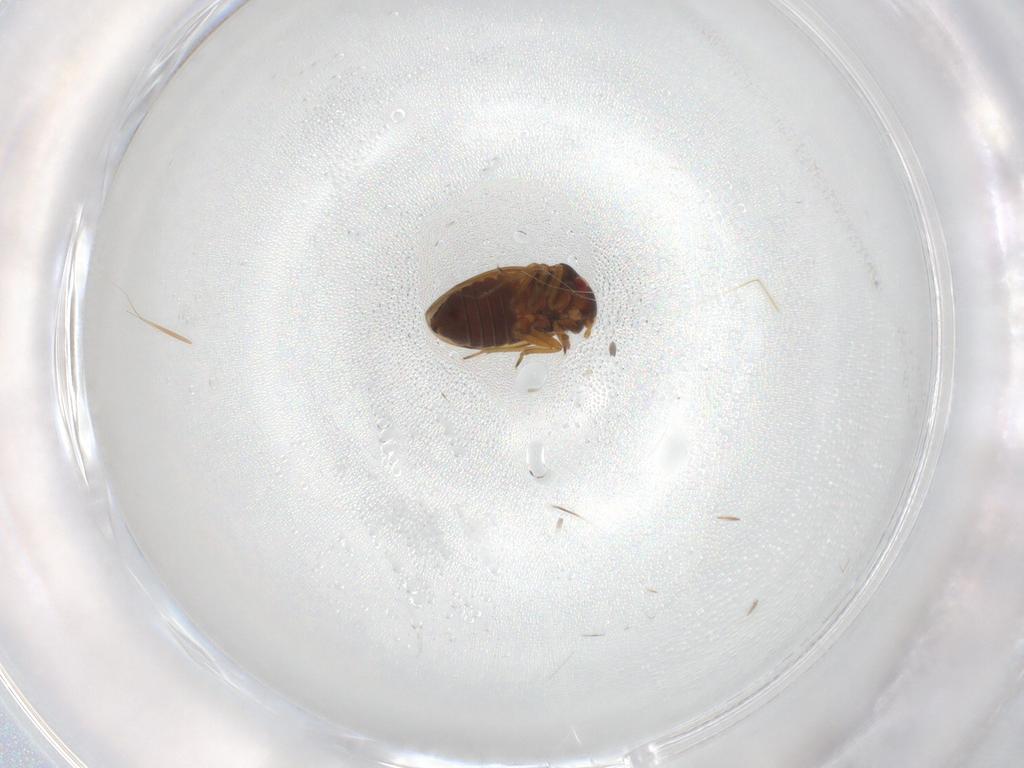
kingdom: Animalia
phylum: Arthropoda
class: Insecta
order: Hemiptera
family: Schizopteridae
